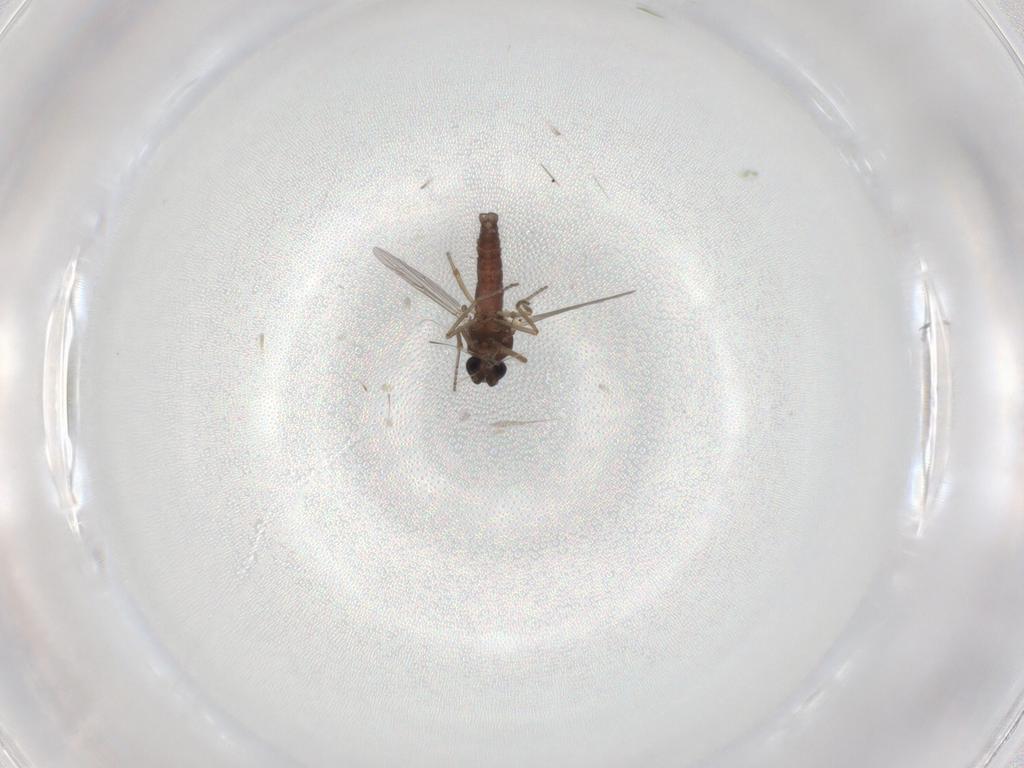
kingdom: Animalia
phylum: Arthropoda
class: Insecta
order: Diptera
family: Ceratopogonidae
